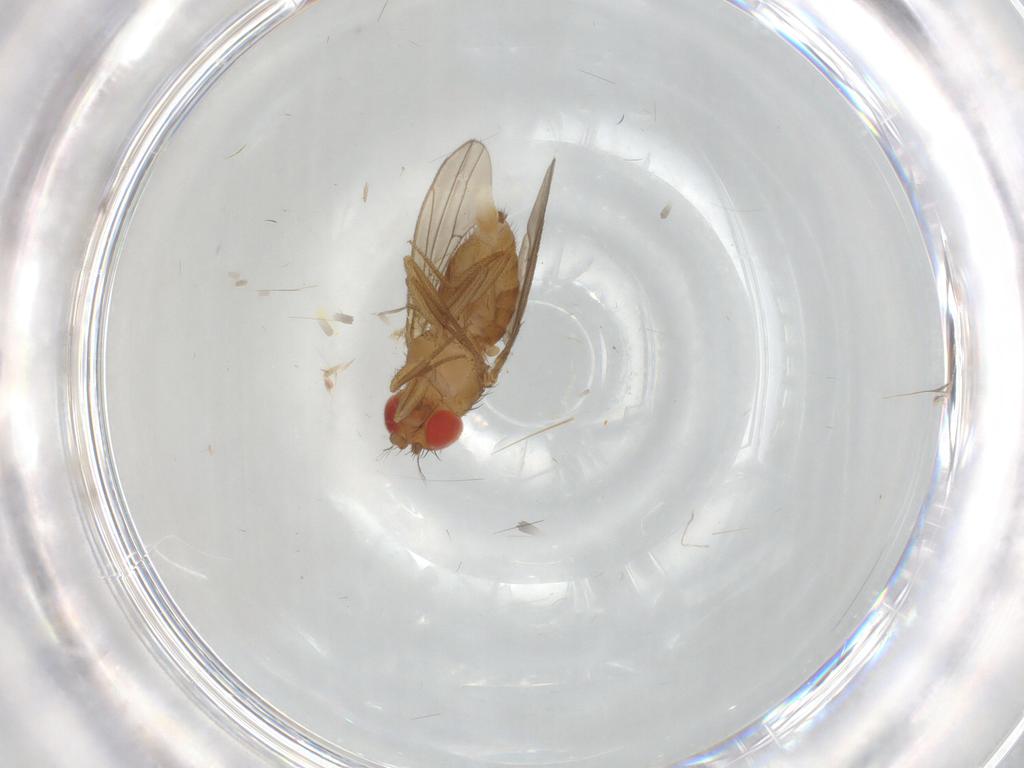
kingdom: Animalia
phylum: Arthropoda
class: Insecta
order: Diptera
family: Drosophilidae
